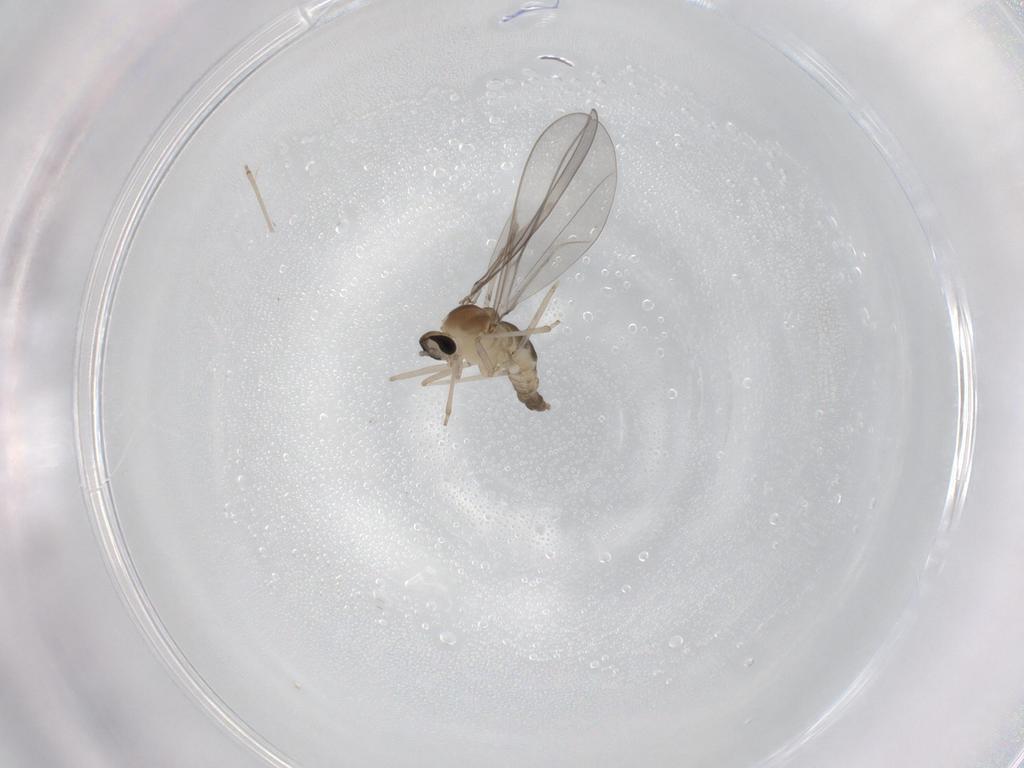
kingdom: Animalia
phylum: Arthropoda
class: Insecta
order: Diptera
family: Cecidomyiidae
